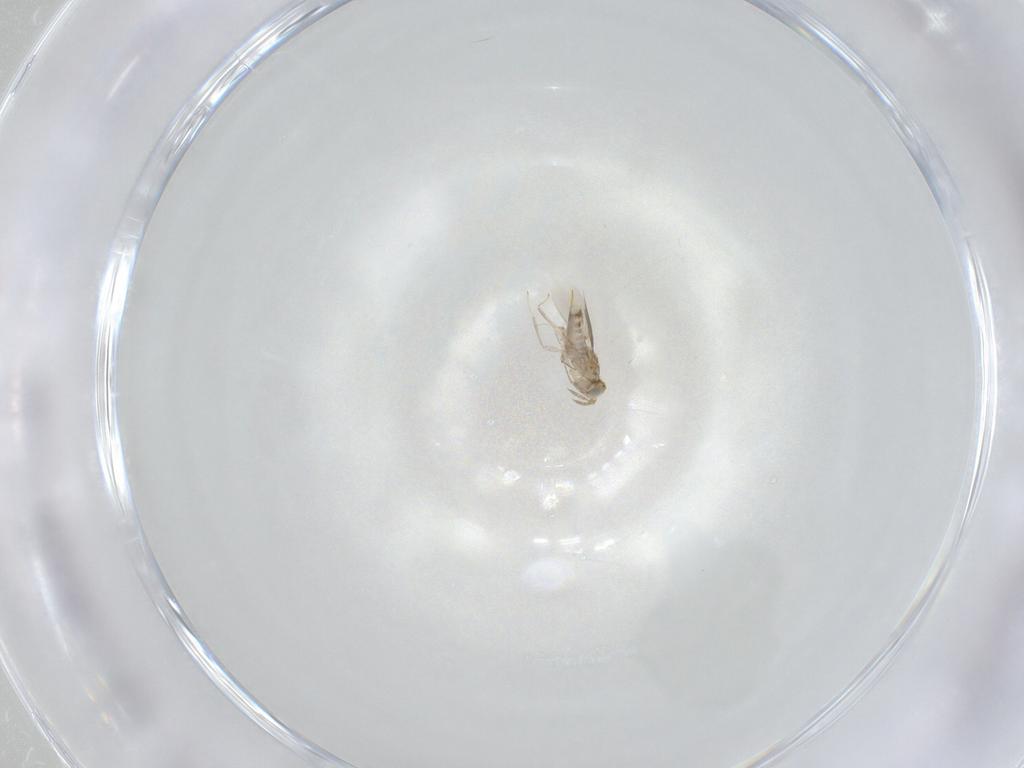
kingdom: Animalia
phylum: Arthropoda
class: Insecta
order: Hymenoptera
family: Aphelinidae
